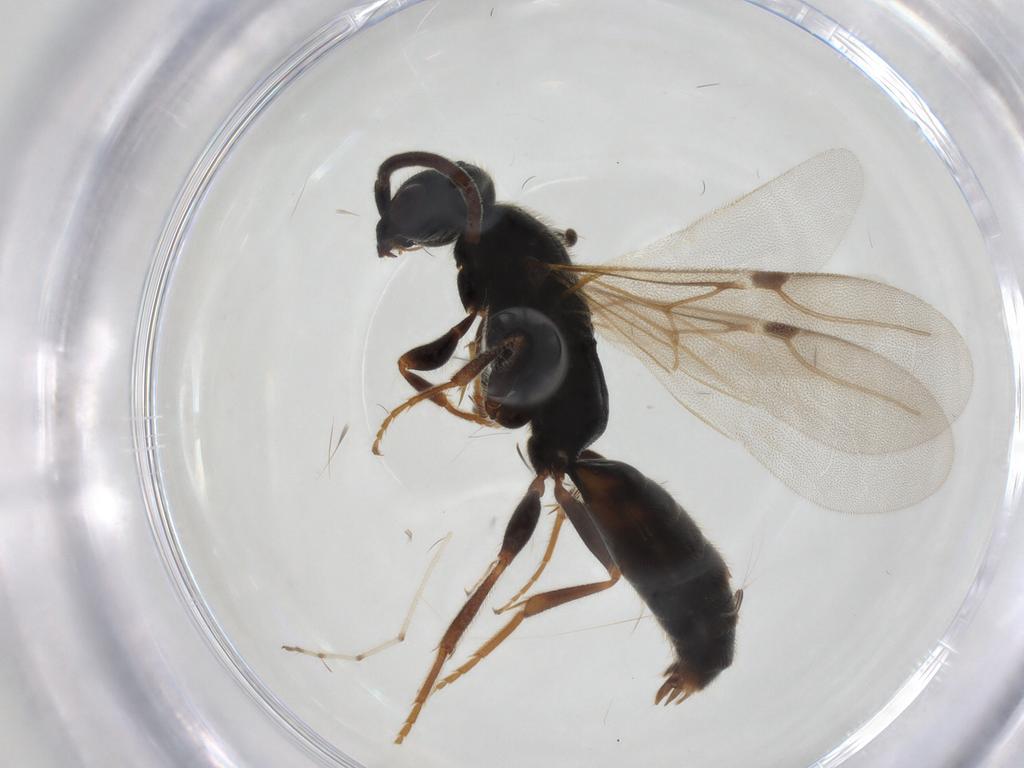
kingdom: Animalia
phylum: Arthropoda
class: Insecta
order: Hymenoptera
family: Bethylidae
